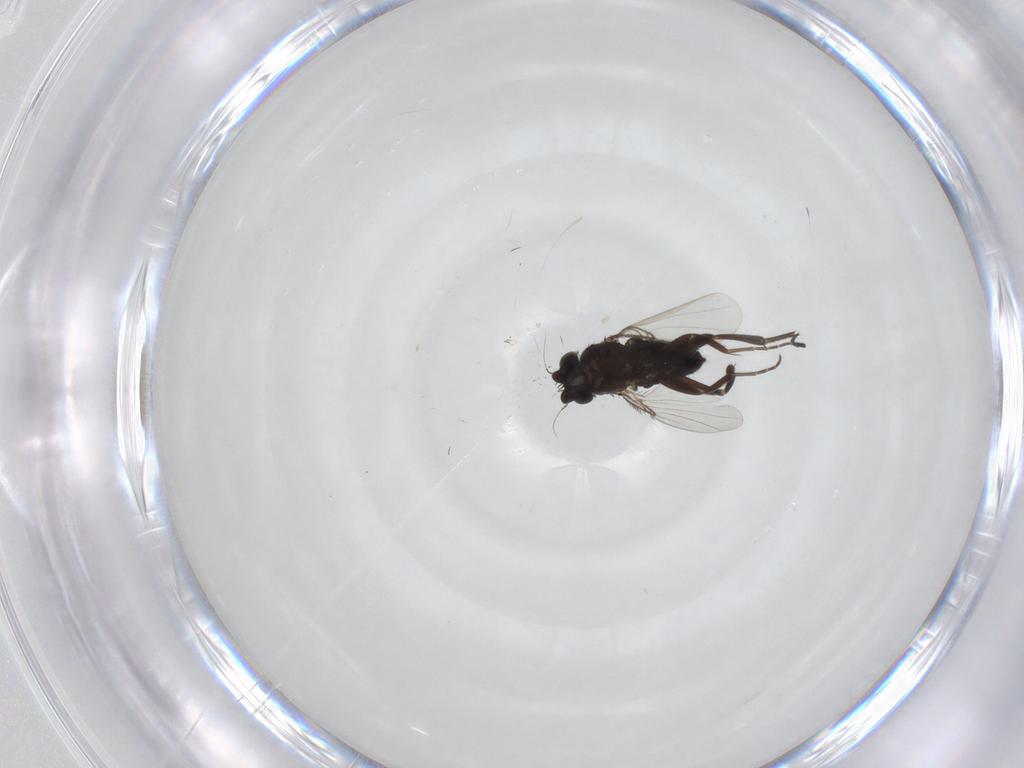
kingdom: Animalia
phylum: Arthropoda
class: Insecta
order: Diptera
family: Phoridae
